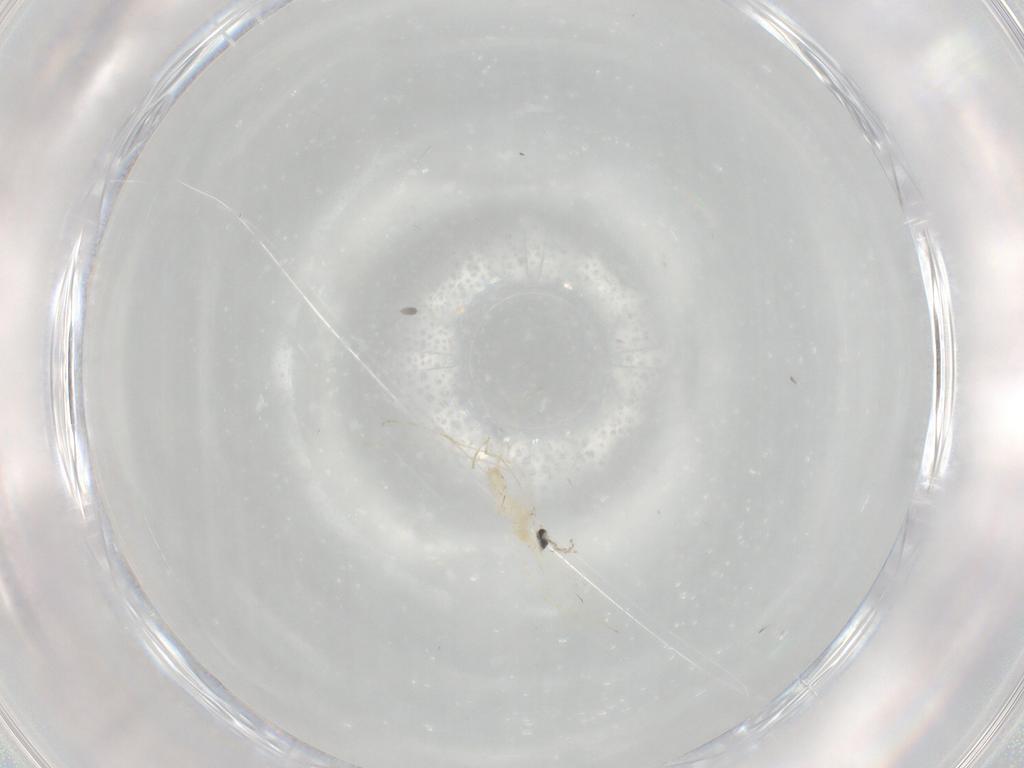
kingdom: Animalia
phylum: Arthropoda
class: Insecta
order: Diptera
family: Cecidomyiidae
